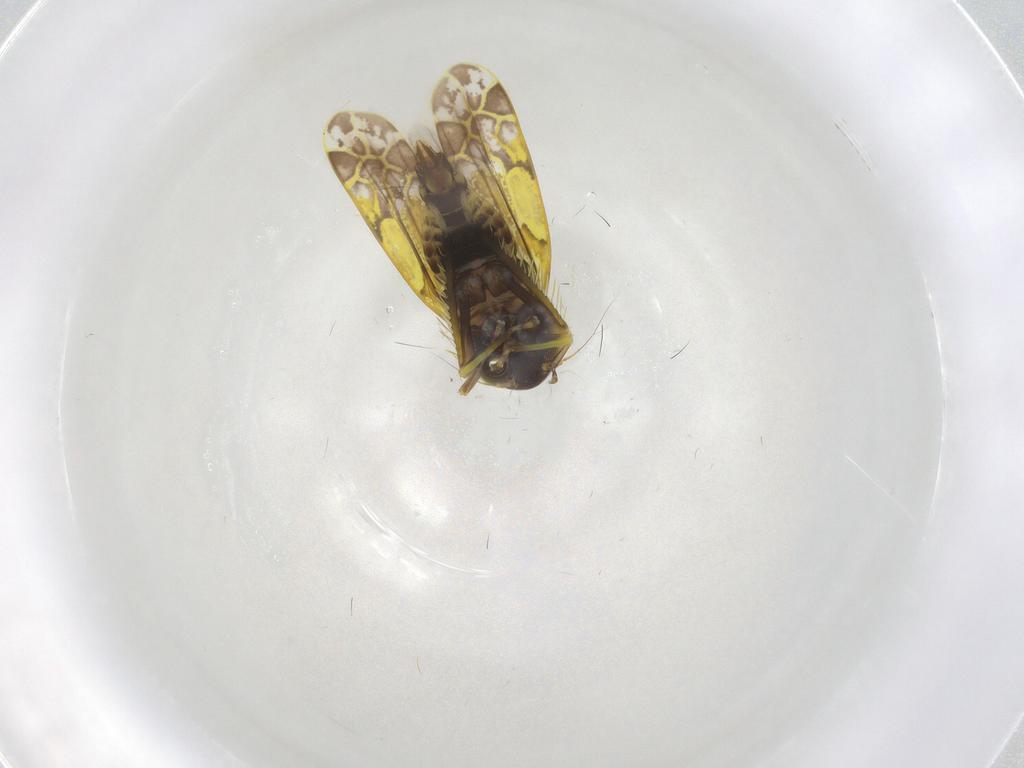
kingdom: Animalia
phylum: Arthropoda
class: Insecta
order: Hemiptera
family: Cicadellidae
